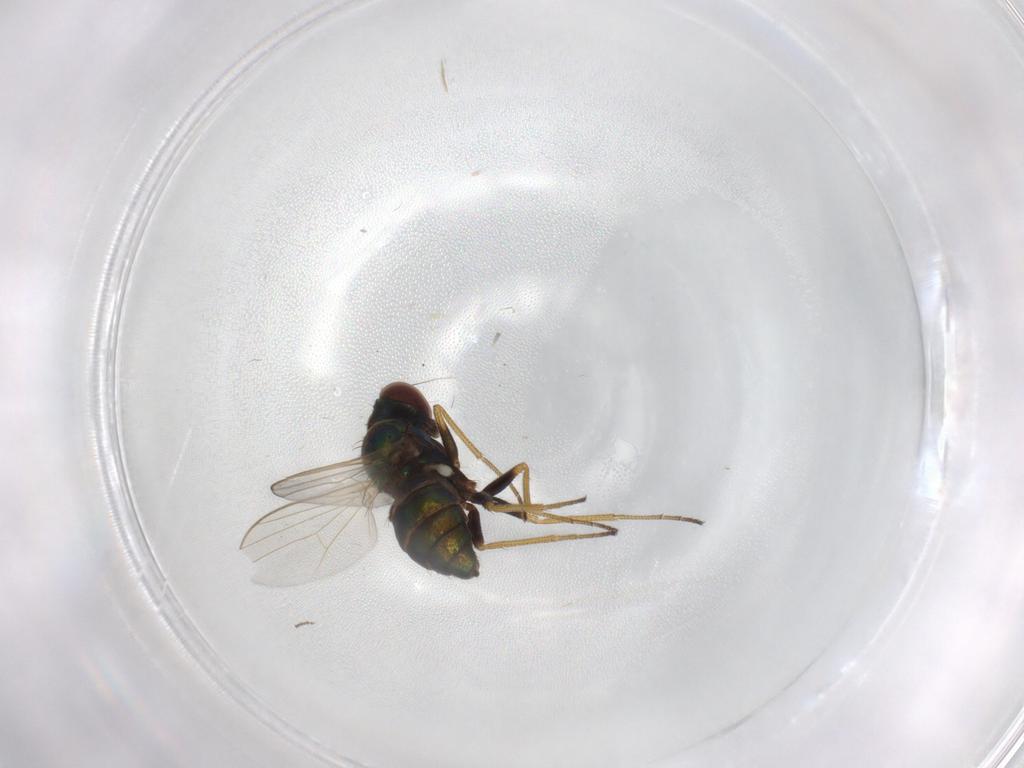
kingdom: Animalia
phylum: Arthropoda
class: Insecta
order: Diptera
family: Dolichopodidae
